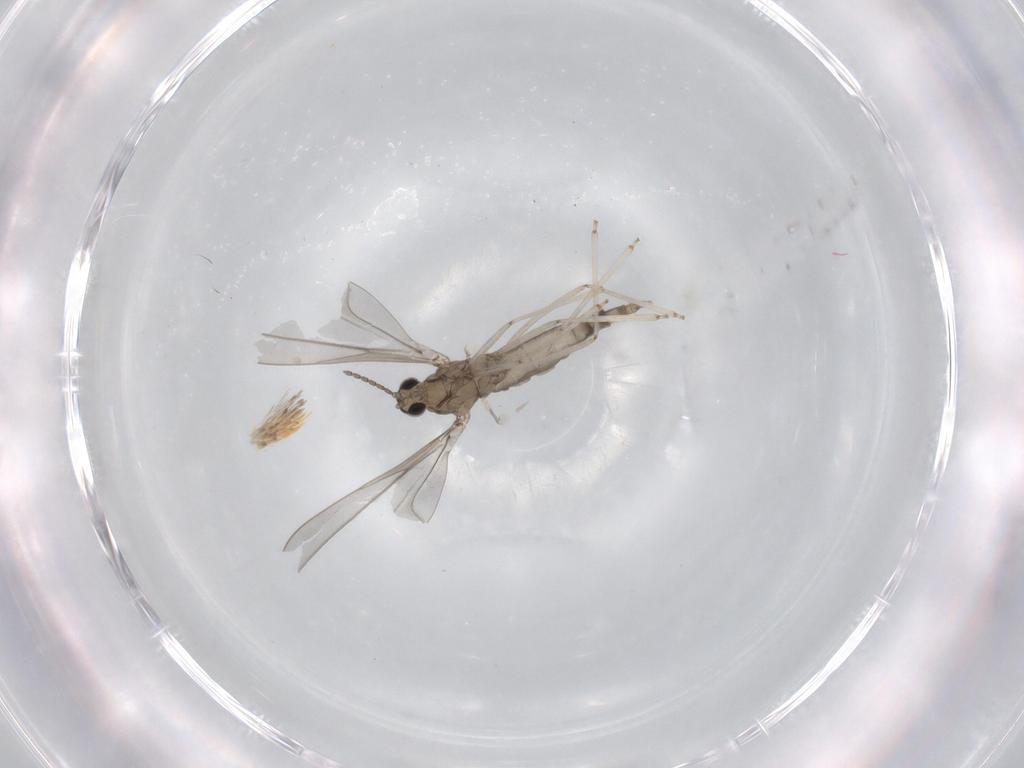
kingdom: Animalia
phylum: Arthropoda
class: Insecta
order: Diptera
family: Cecidomyiidae
